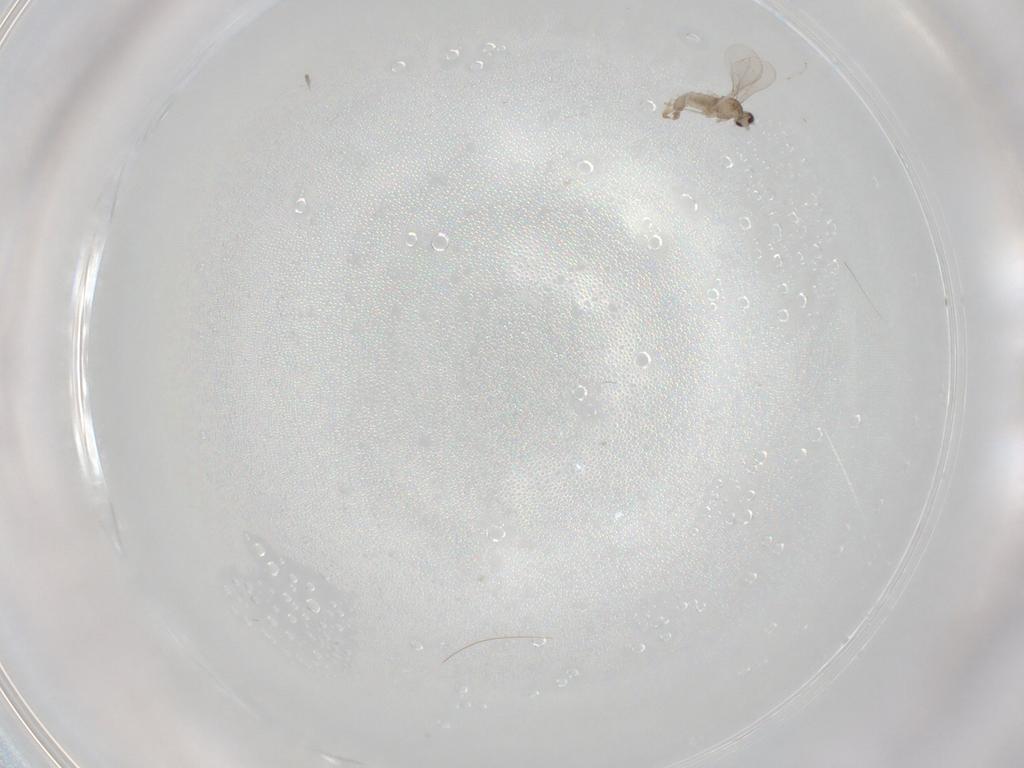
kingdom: Animalia
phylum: Arthropoda
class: Insecta
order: Diptera
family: Cecidomyiidae
